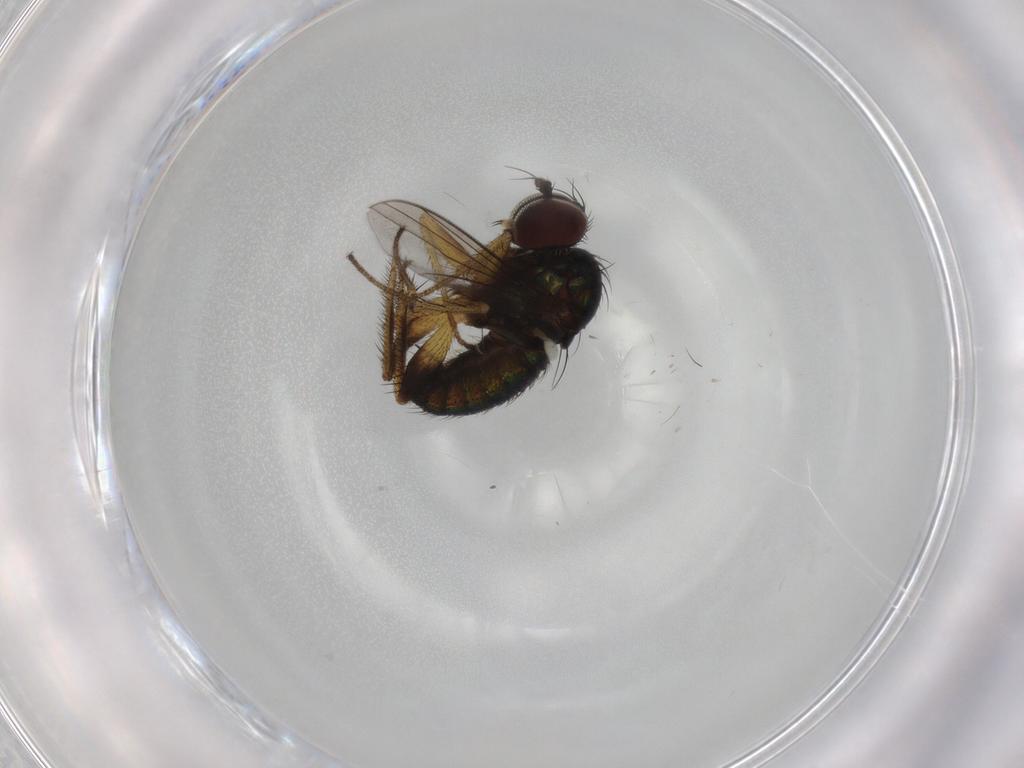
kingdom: Animalia
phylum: Arthropoda
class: Insecta
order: Diptera
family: Dolichopodidae
